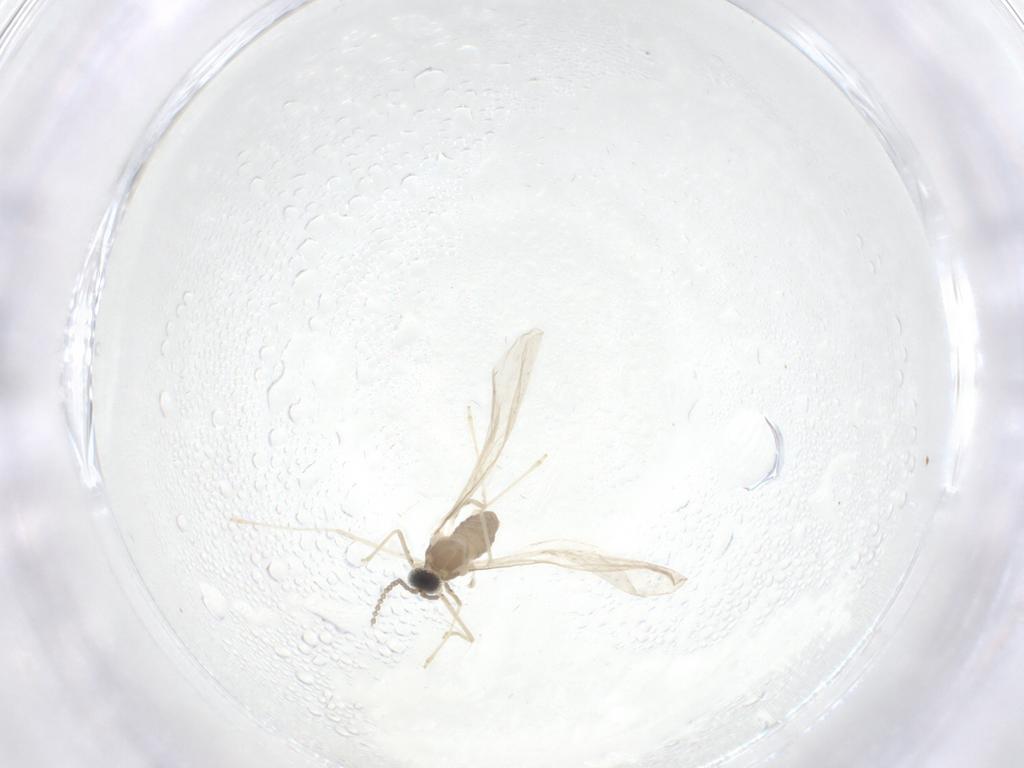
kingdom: Animalia
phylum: Arthropoda
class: Insecta
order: Diptera
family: Cecidomyiidae
